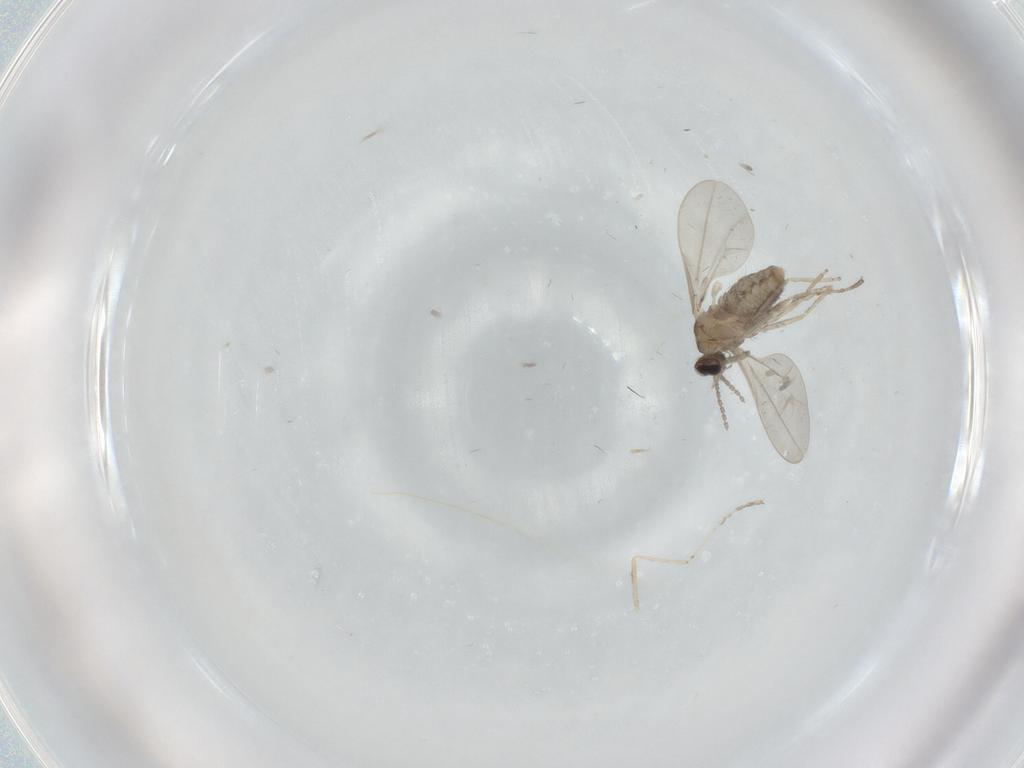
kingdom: Animalia
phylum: Arthropoda
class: Insecta
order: Diptera
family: Cecidomyiidae
